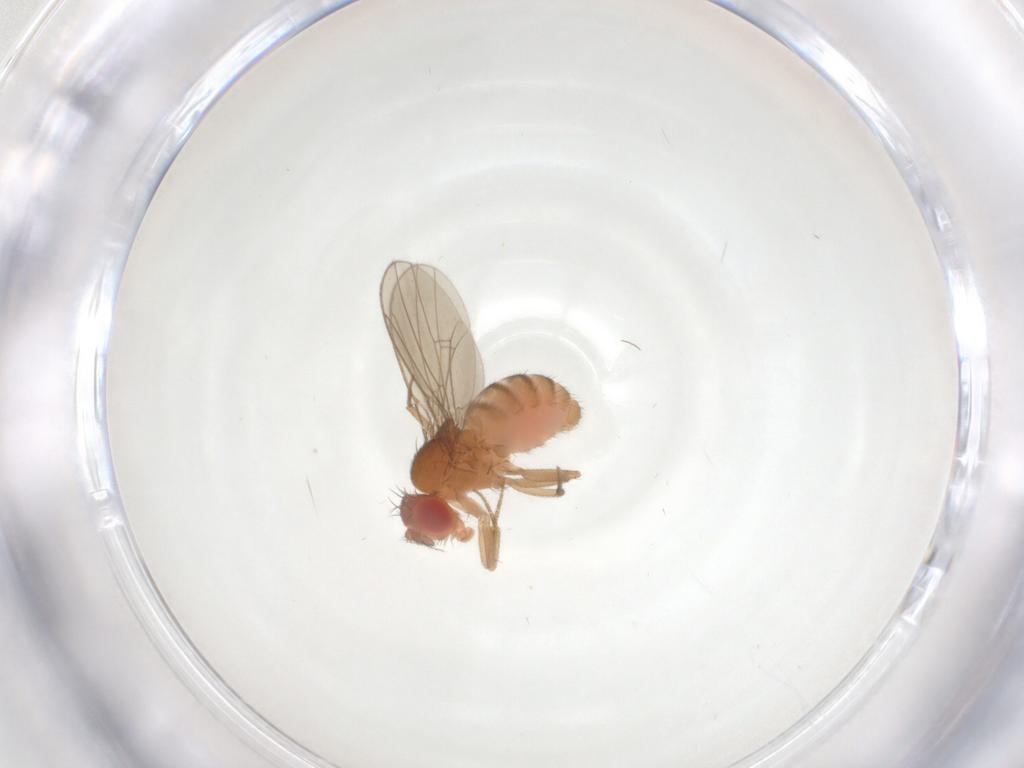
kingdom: Animalia
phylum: Arthropoda
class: Insecta
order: Diptera
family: Drosophilidae
